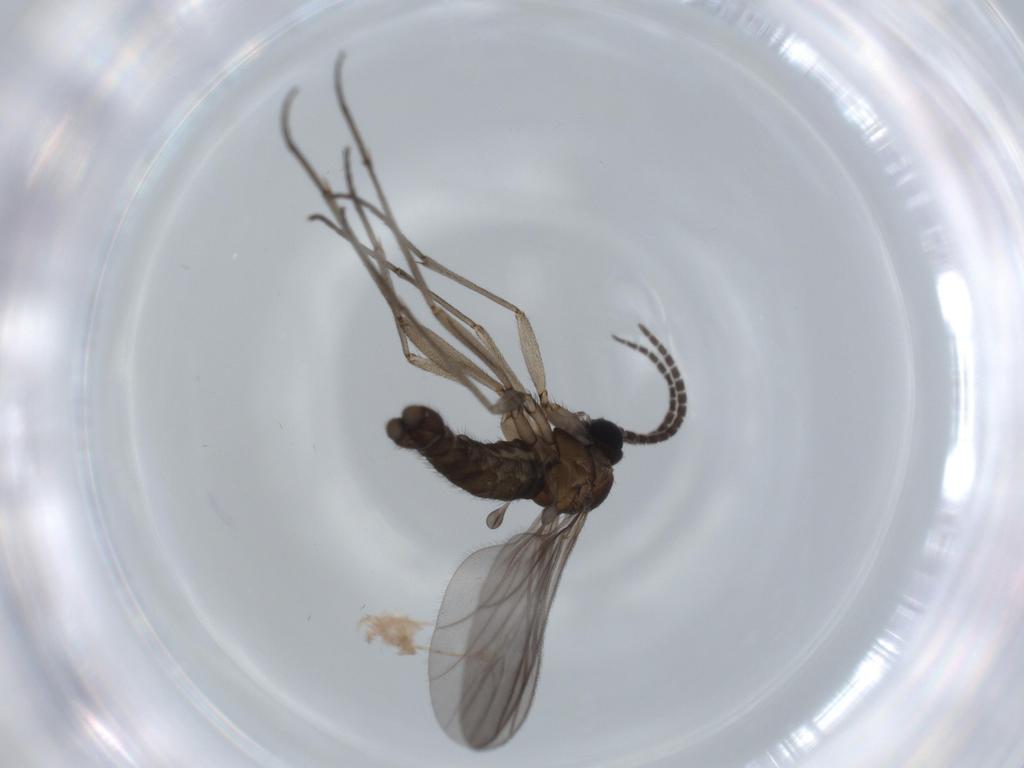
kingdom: Animalia
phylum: Arthropoda
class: Insecta
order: Diptera
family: Sciaridae
